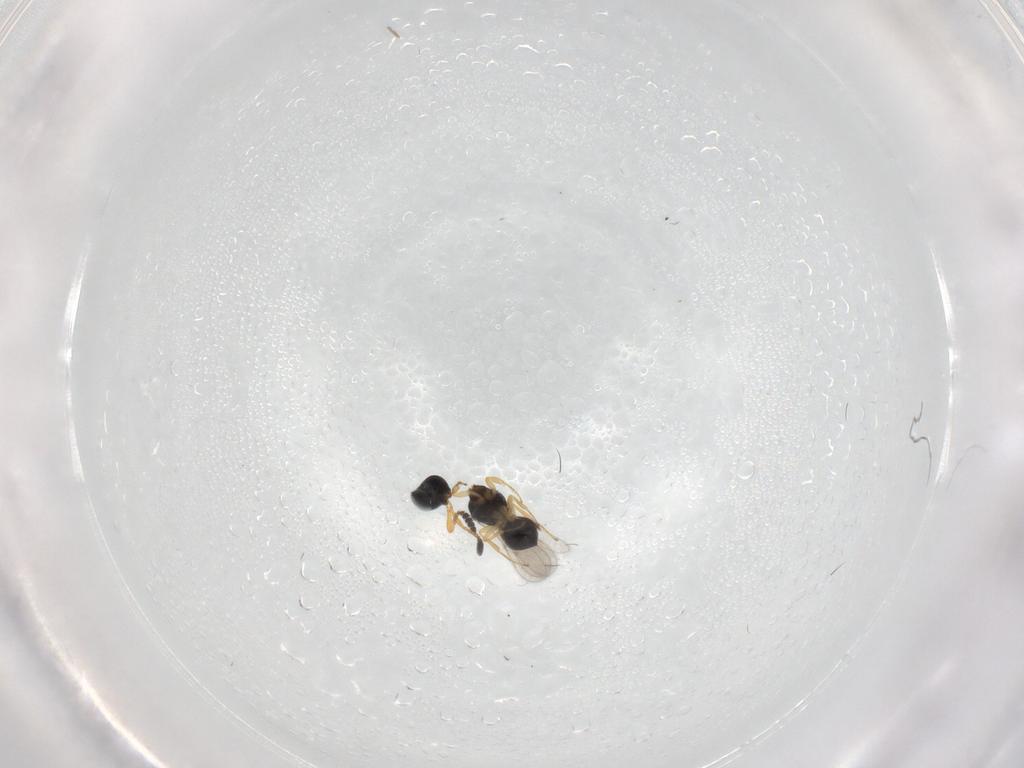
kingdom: Animalia
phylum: Arthropoda
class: Insecta
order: Hymenoptera
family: Scelionidae
